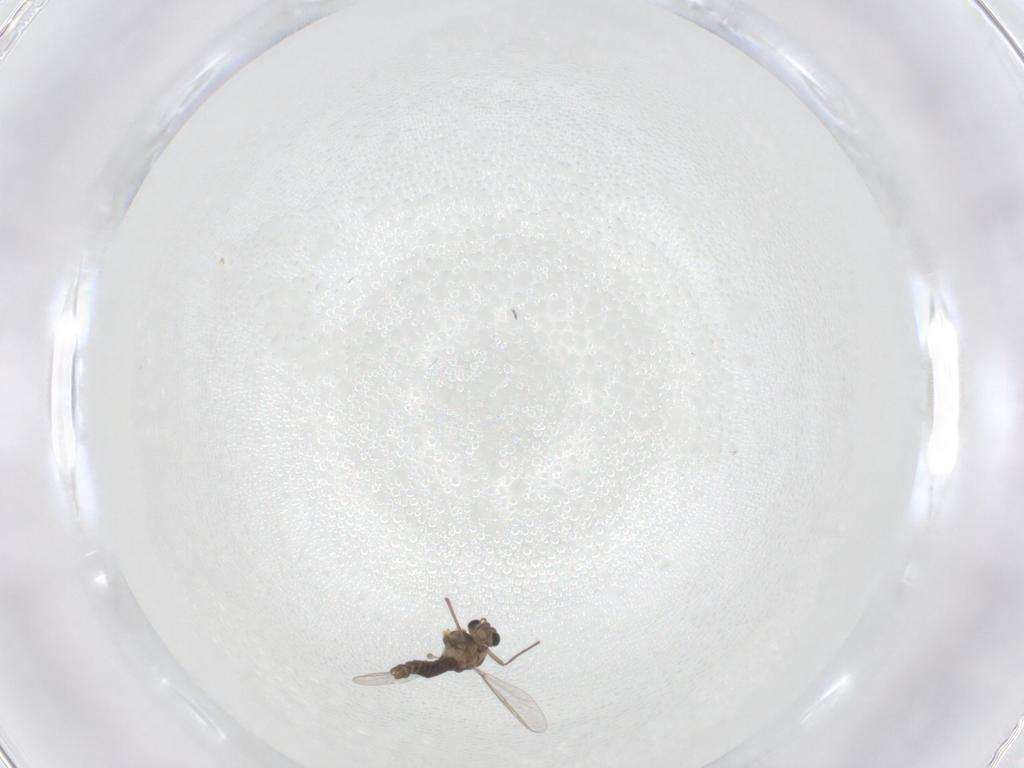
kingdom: Animalia
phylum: Arthropoda
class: Insecta
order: Diptera
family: Chironomidae
